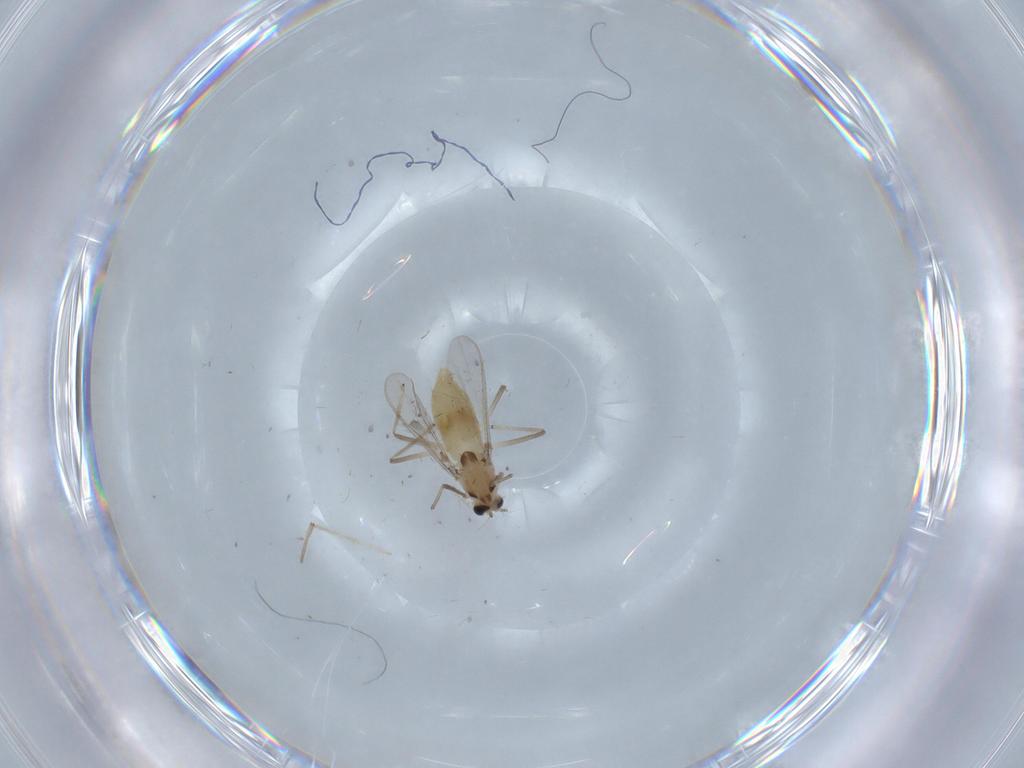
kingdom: Animalia
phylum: Arthropoda
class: Insecta
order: Diptera
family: Chironomidae
